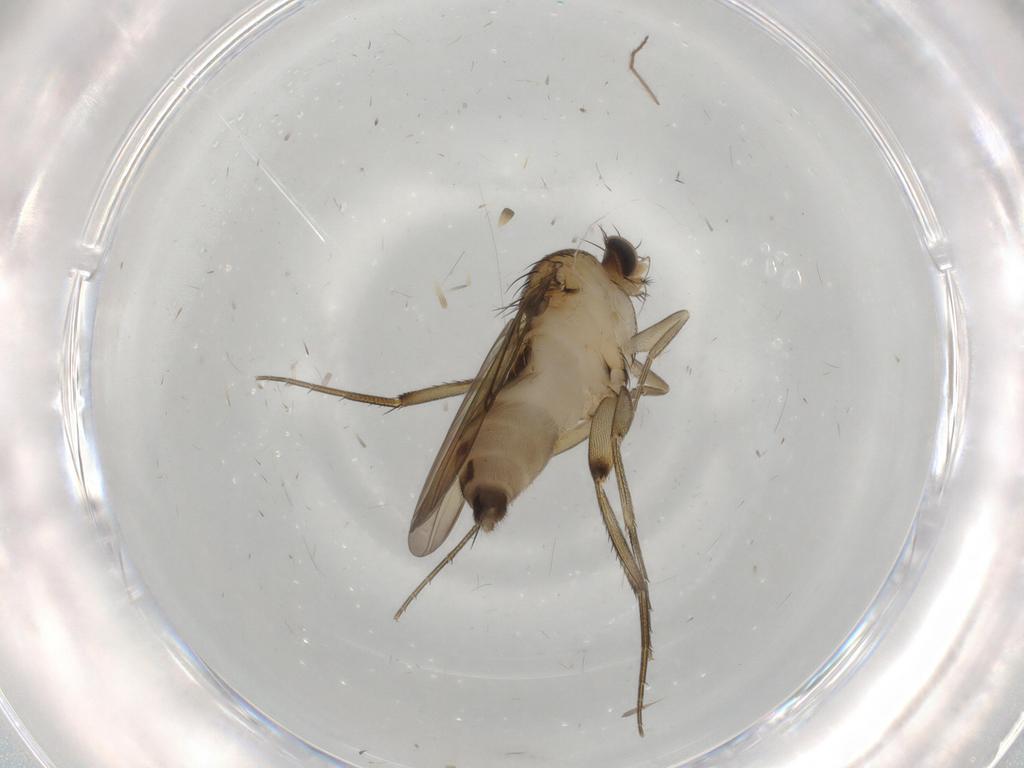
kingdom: Animalia
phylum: Arthropoda
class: Insecta
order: Diptera
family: Phoridae
